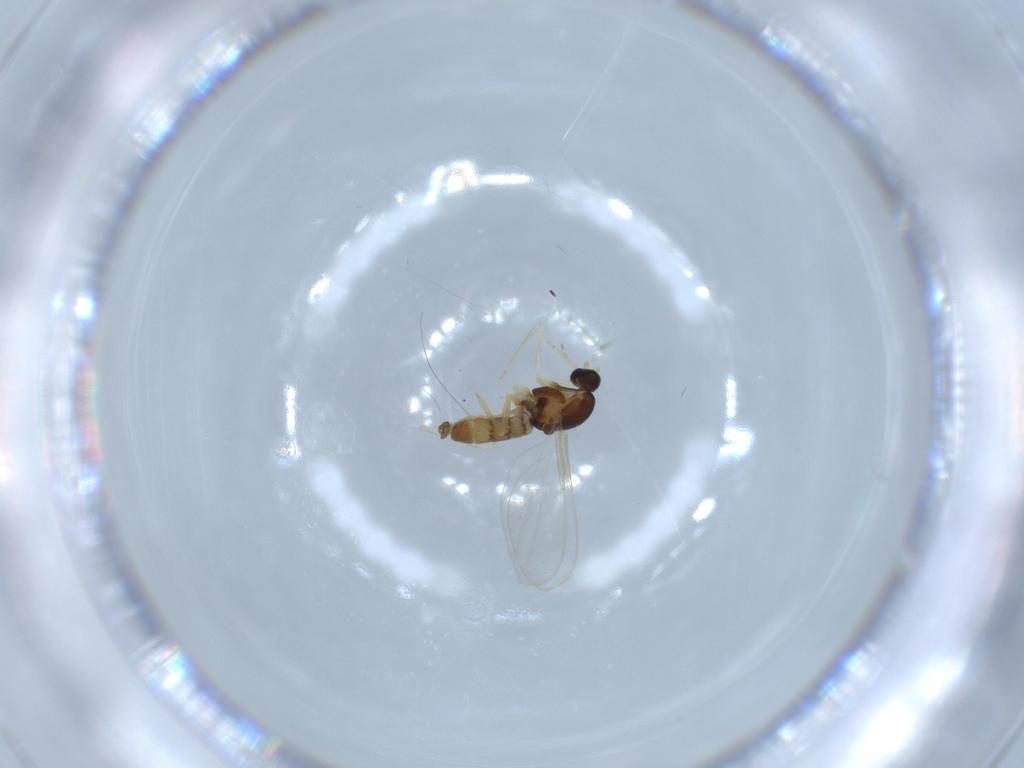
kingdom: Animalia
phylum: Arthropoda
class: Insecta
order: Diptera
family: Cecidomyiidae
